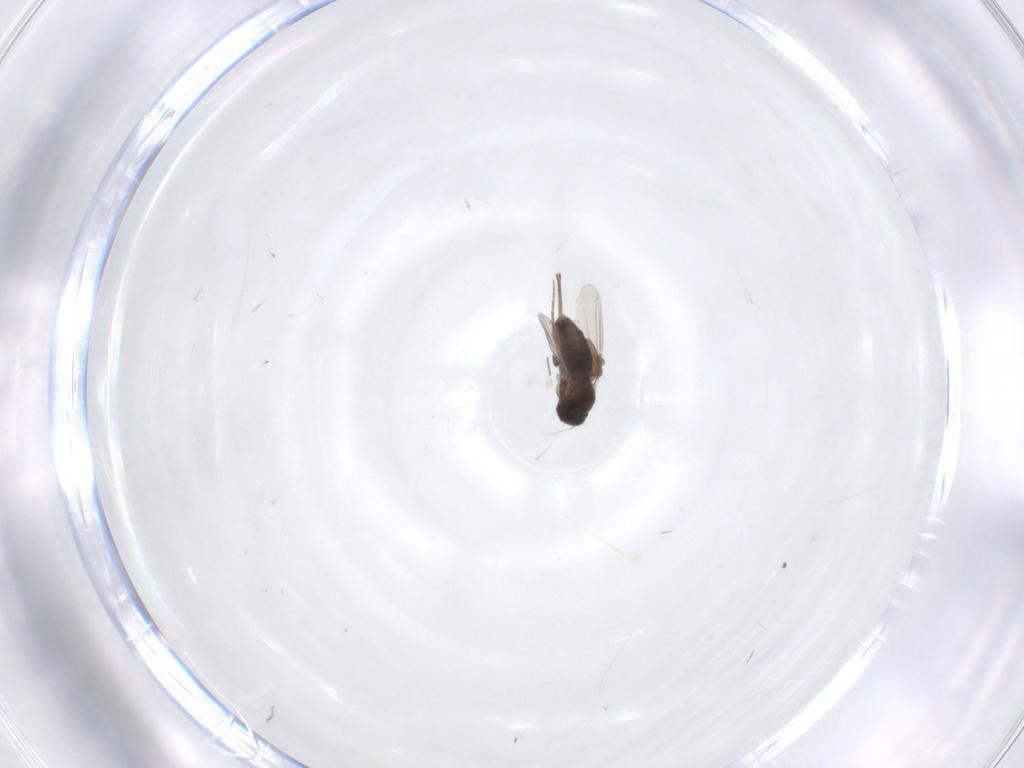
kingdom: Animalia
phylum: Arthropoda
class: Insecta
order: Diptera
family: Phoridae
